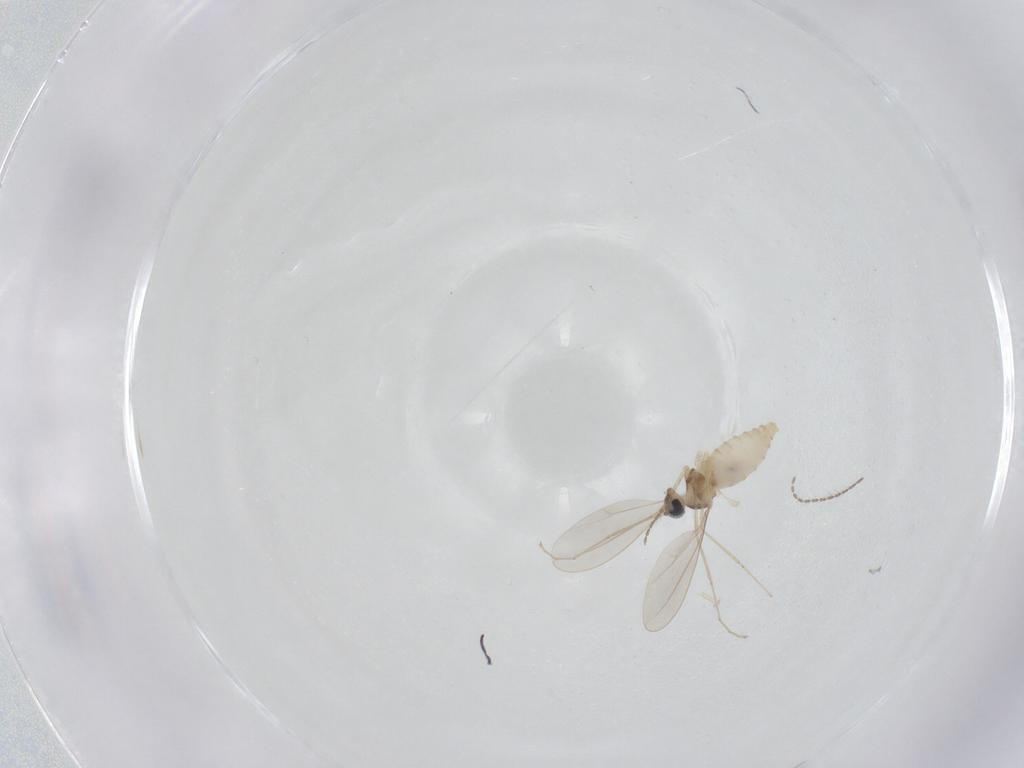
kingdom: Animalia
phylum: Arthropoda
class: Insecta
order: Diptera
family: Cecidomyiidae
